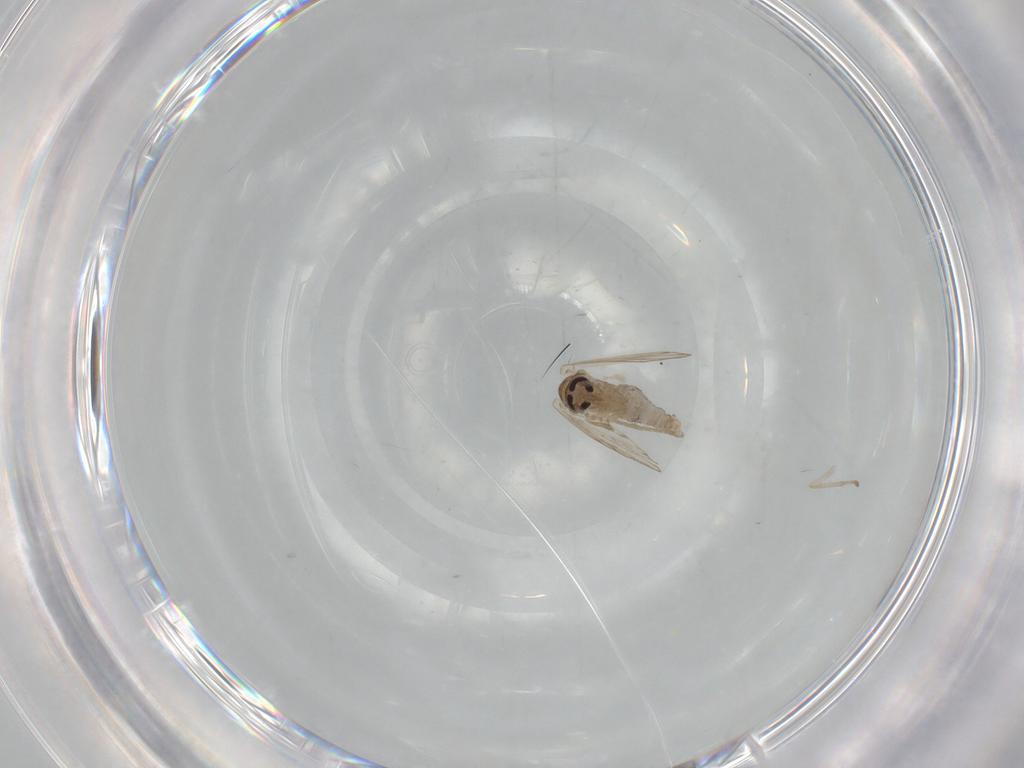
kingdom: Animalia
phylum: Arthropoda
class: Insecta
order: Diptera
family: Psychodidae
